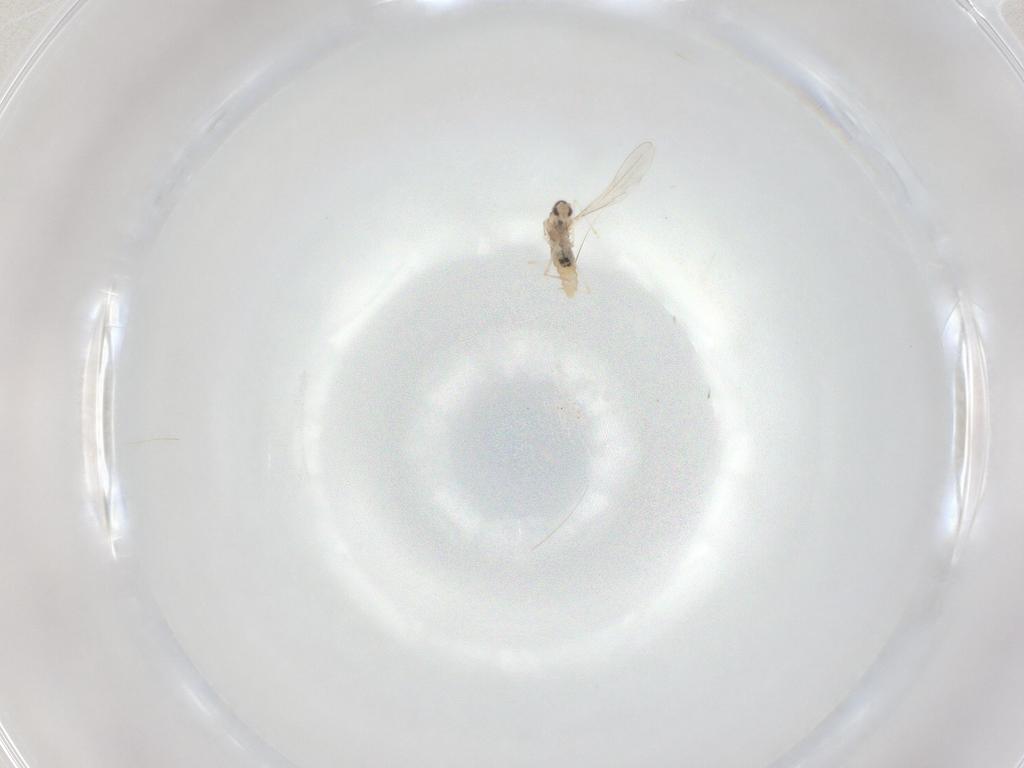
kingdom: Animalia
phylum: Arthropoda
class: Insecta
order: Diptera
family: Cecidomyiidae
